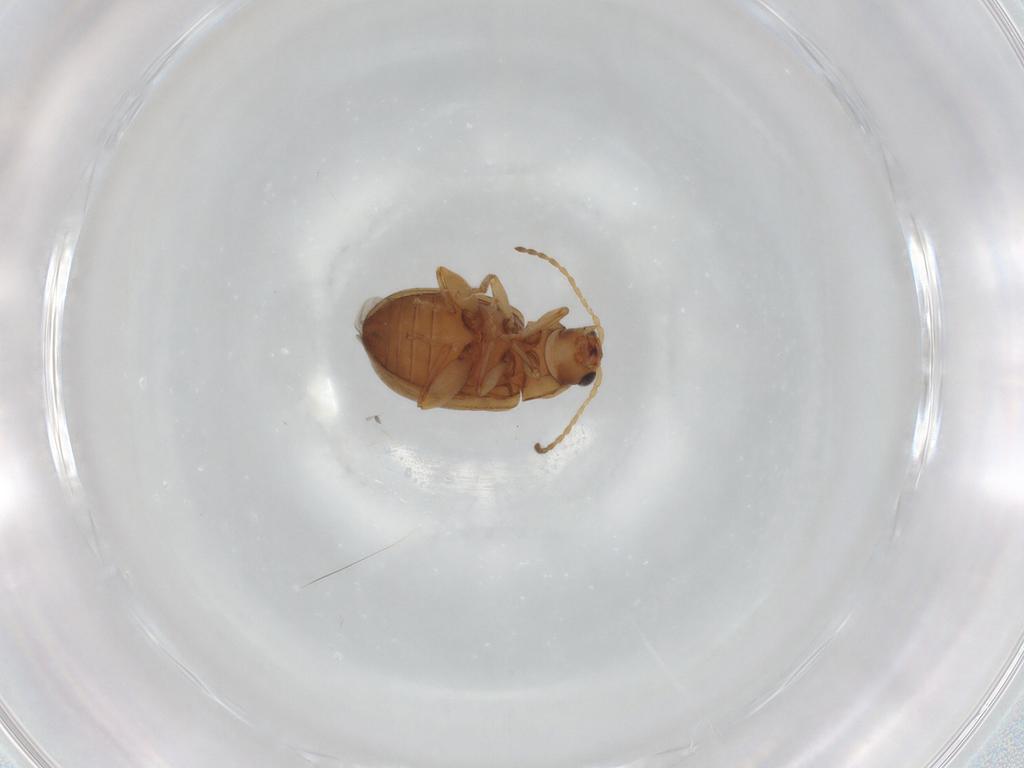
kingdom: Animalia
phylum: Arthropoda
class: Insecta
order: Coleoptera
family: Chrysomelidae
